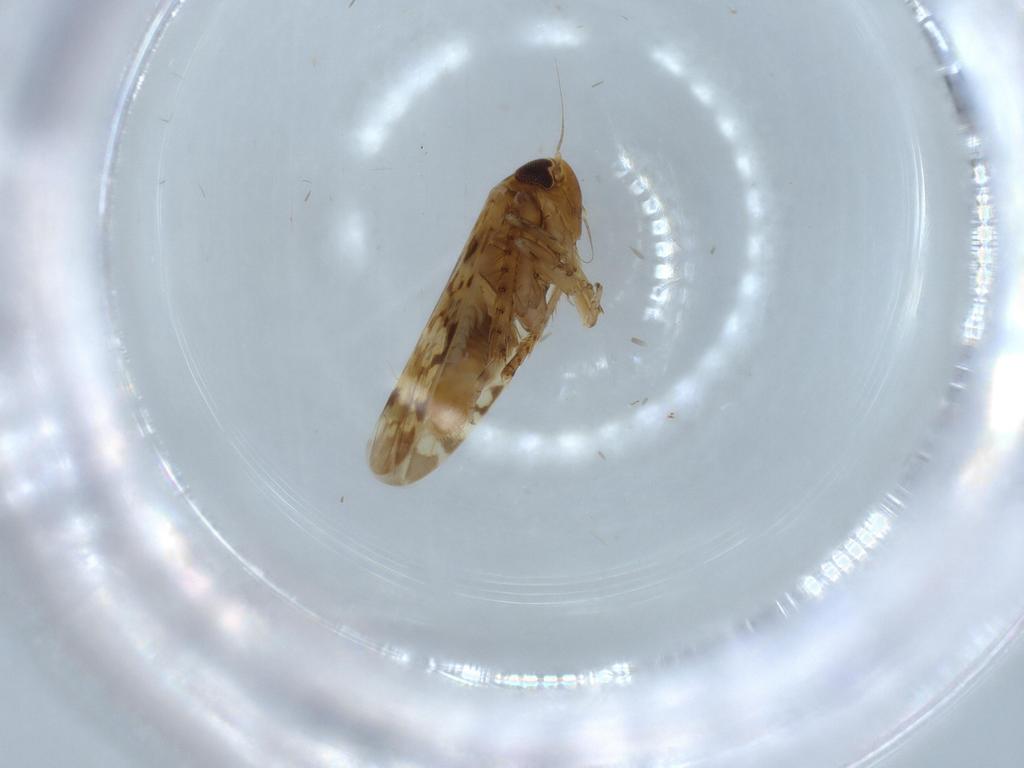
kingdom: Animalia
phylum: Arthropoda
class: Insecta
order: Hemiptera
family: Cicadellidae
